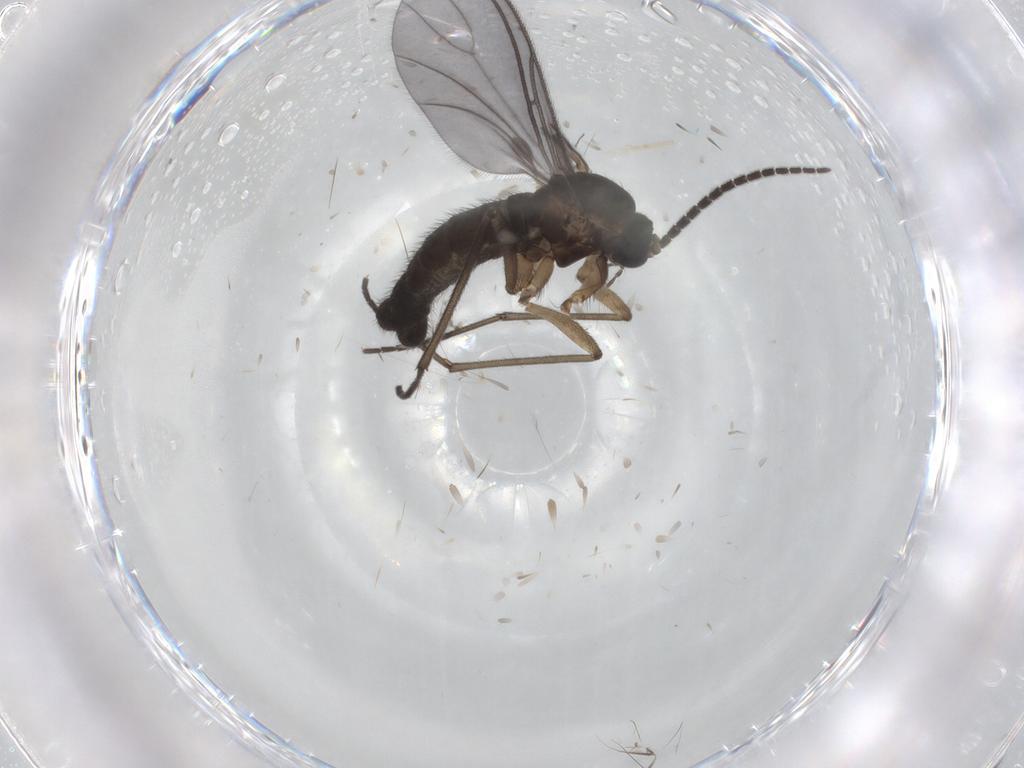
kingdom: Animalia
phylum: Arthropoda
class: Insecta
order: Diptera
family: Sciaridae
